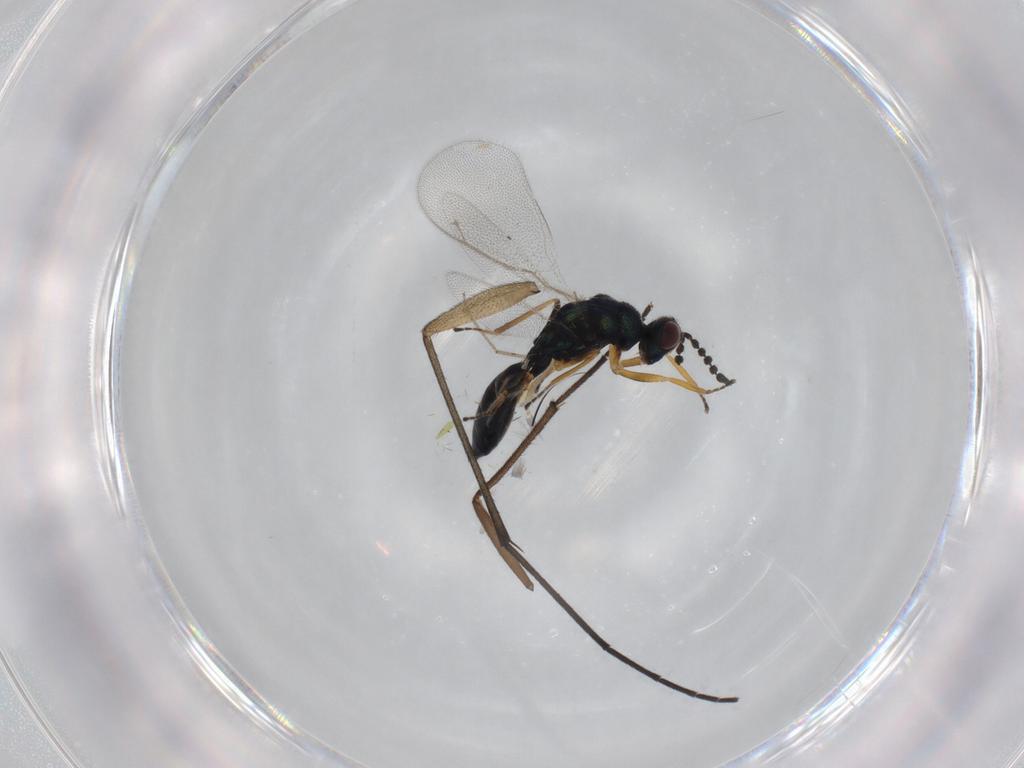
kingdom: Animalia
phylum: Arthropoda
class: Insecta
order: Hymenoptera
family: Eulophidae
